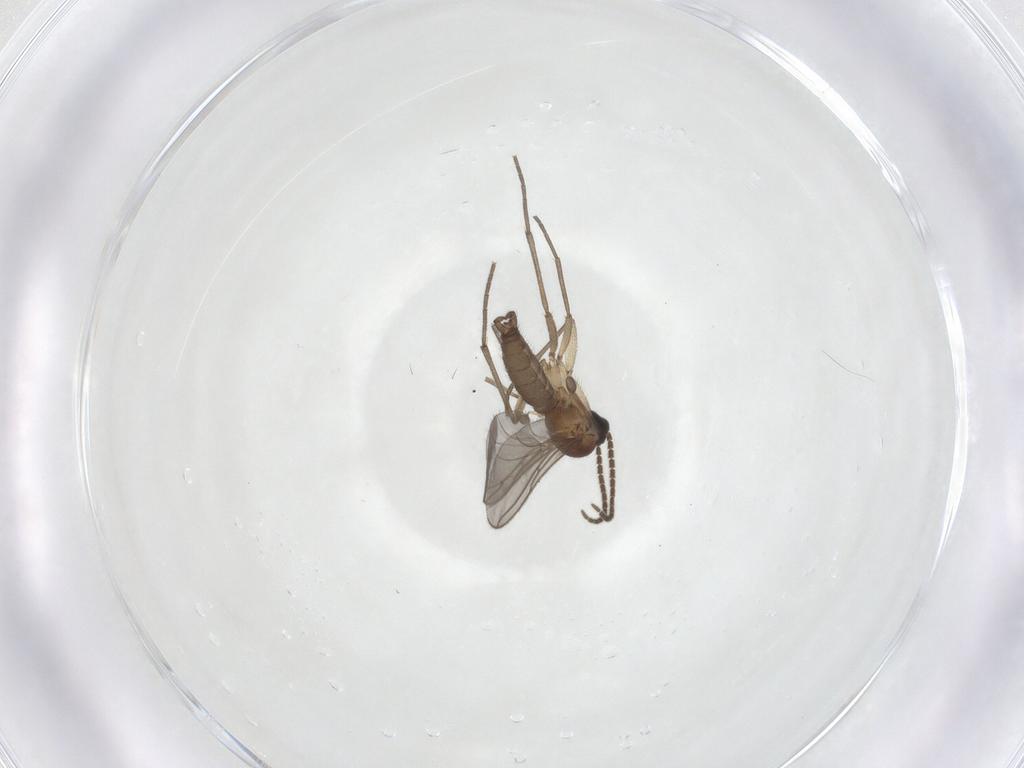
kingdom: Animalia
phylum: Arthropoda
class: Insecta
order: Diptera
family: Sciaridae
